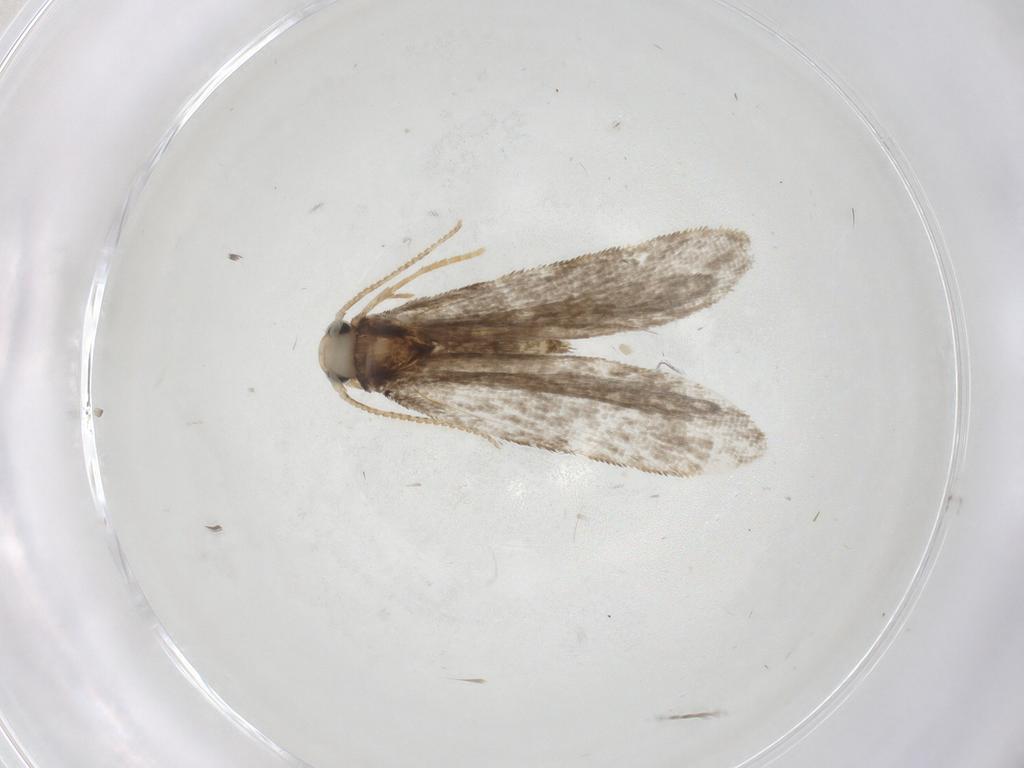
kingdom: Animalia
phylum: Arthropoda
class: Insecta
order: Lepidoptera
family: Psychidae
